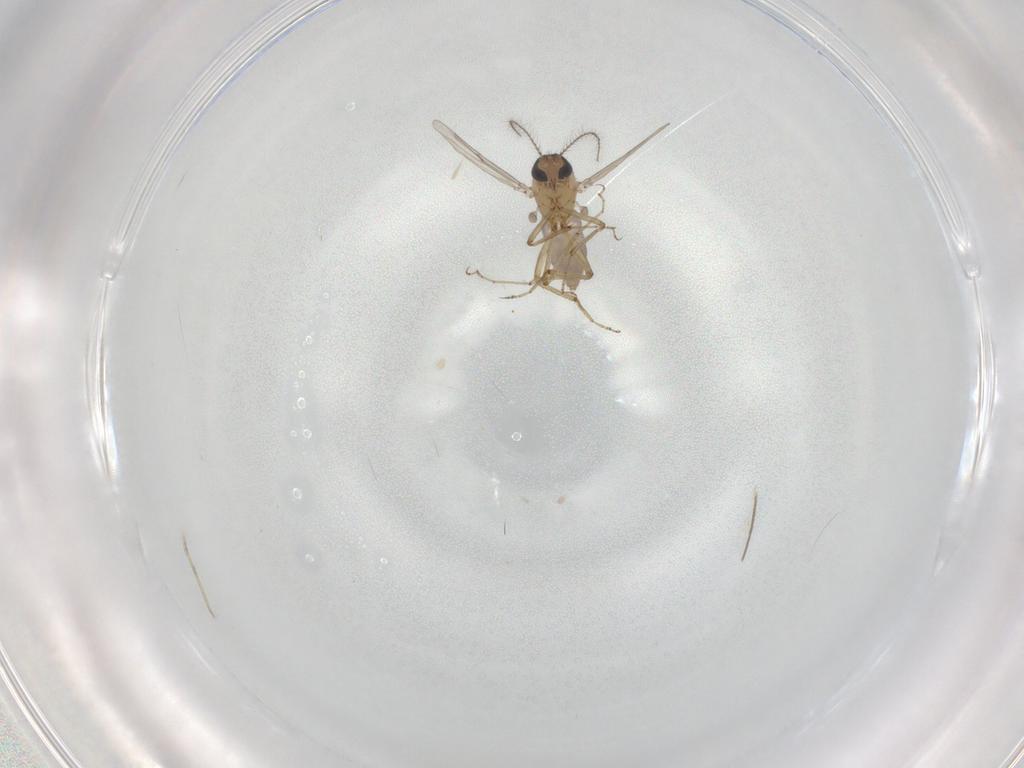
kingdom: Animalia
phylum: Arthropoda
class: Insecta
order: Diptera
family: Ceratopogonidae
